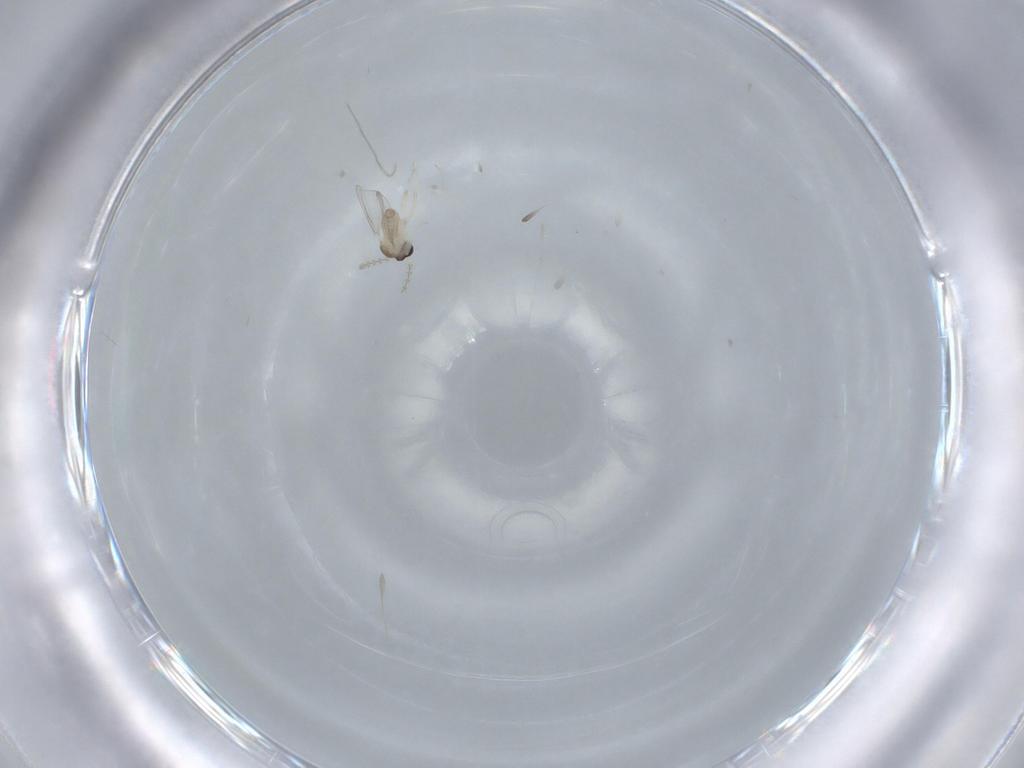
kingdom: Animalia
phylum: Arthropoda
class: Insecta
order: Diptera
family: Cecidomyiidae
